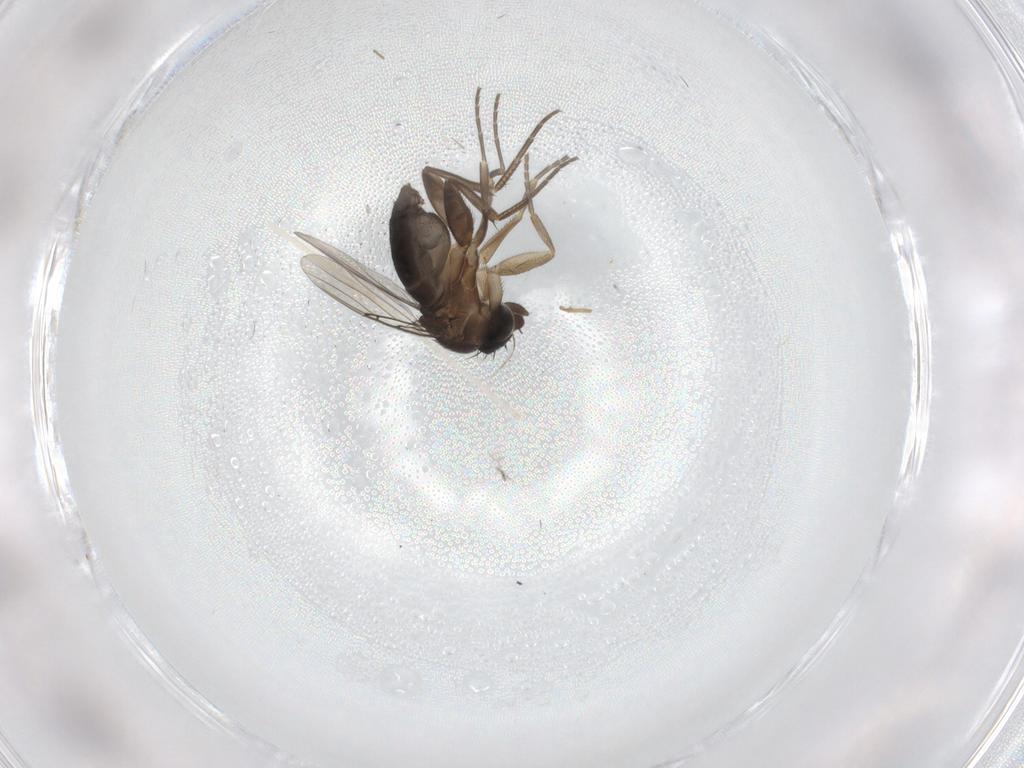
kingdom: Animalia
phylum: Arthropoda
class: Insecta
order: Diptera
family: Phoridae
